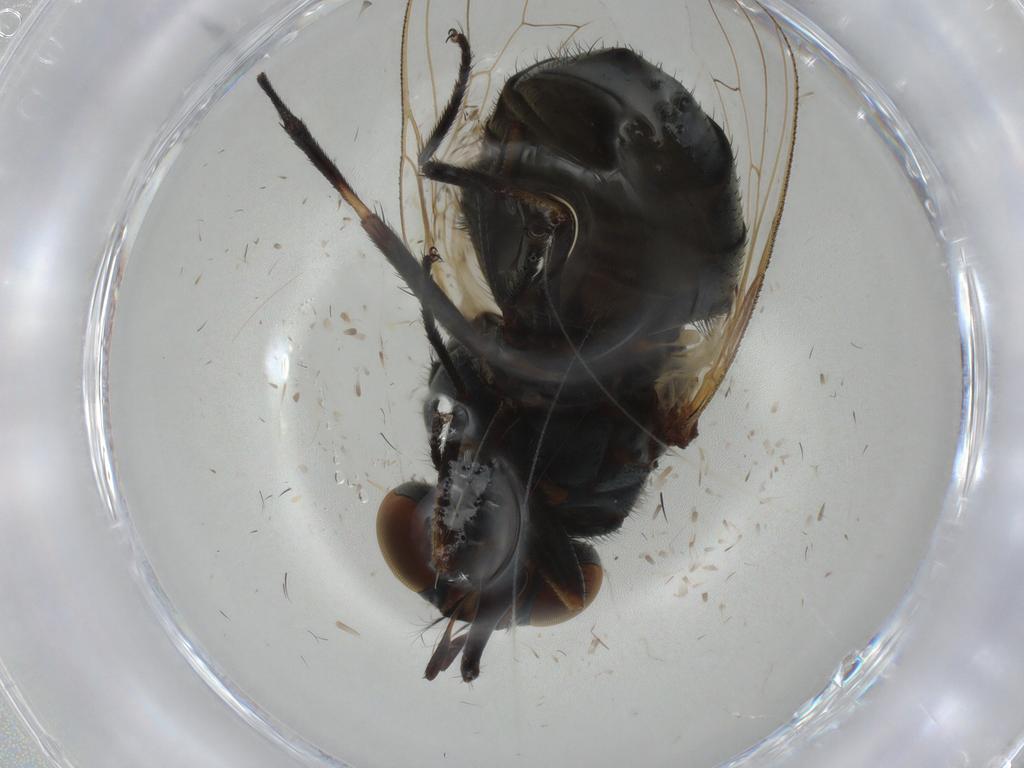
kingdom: Animalia
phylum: Arthropoda
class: Insecta
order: Diptera
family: Muscidae
